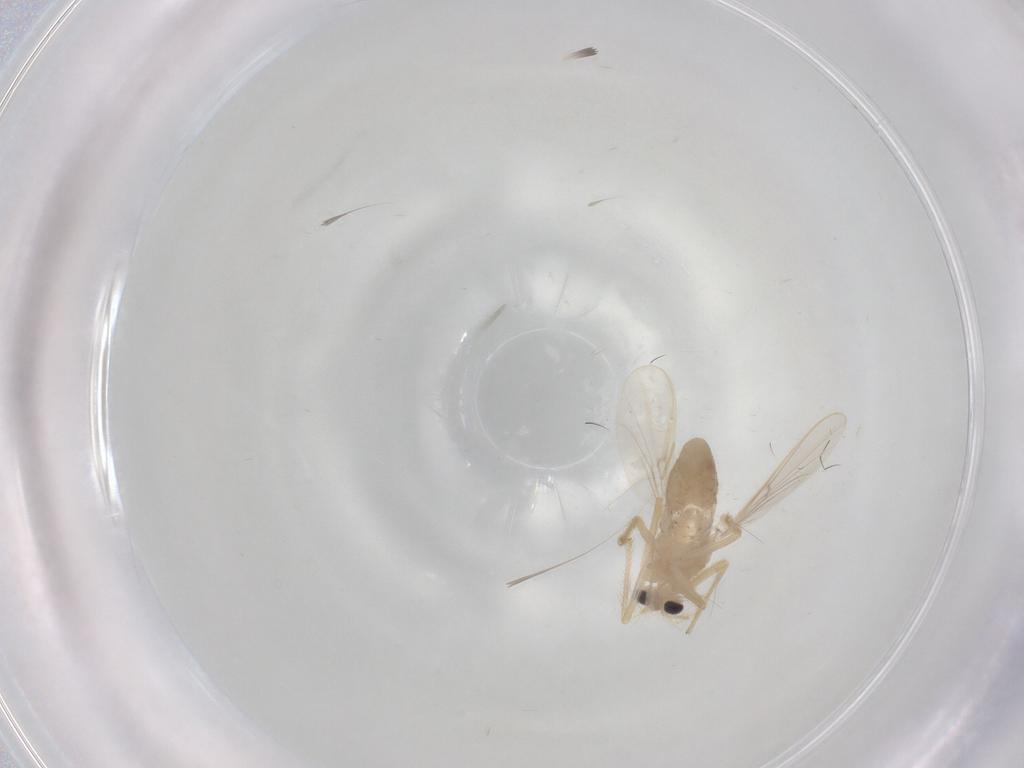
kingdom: Animalia
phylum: Arthropoda
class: Insecta
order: Diptera
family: Chironomidae
